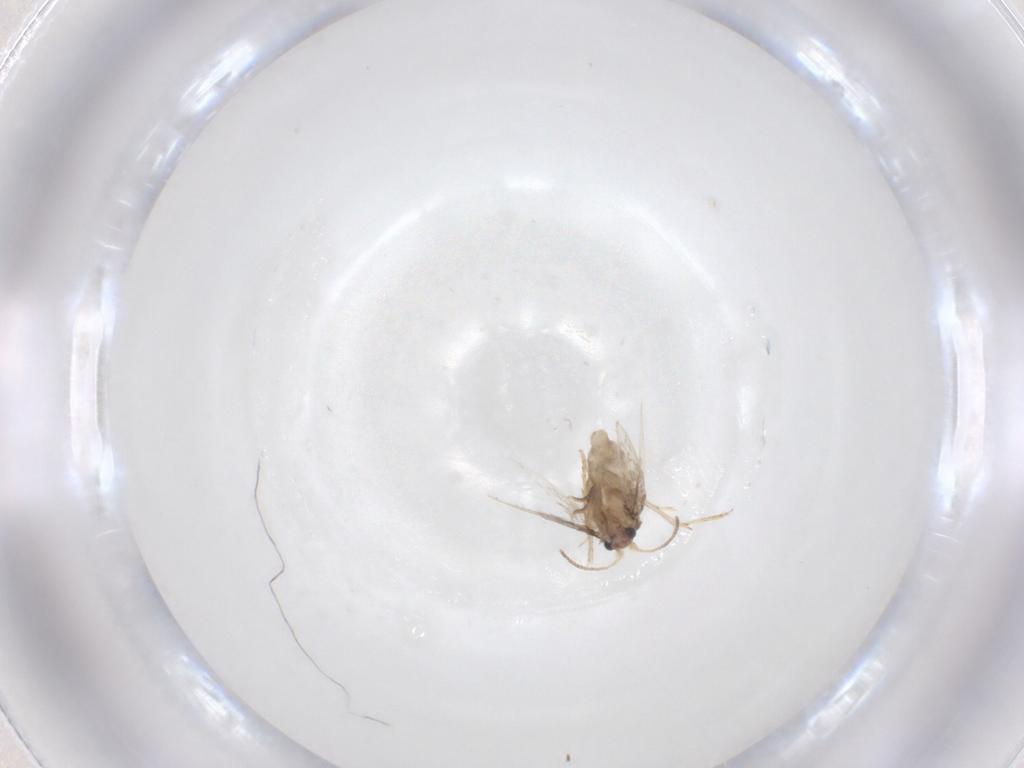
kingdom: Animalia
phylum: Arthropoda
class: Insecta
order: Lepidoptera
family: Nepticulidae
